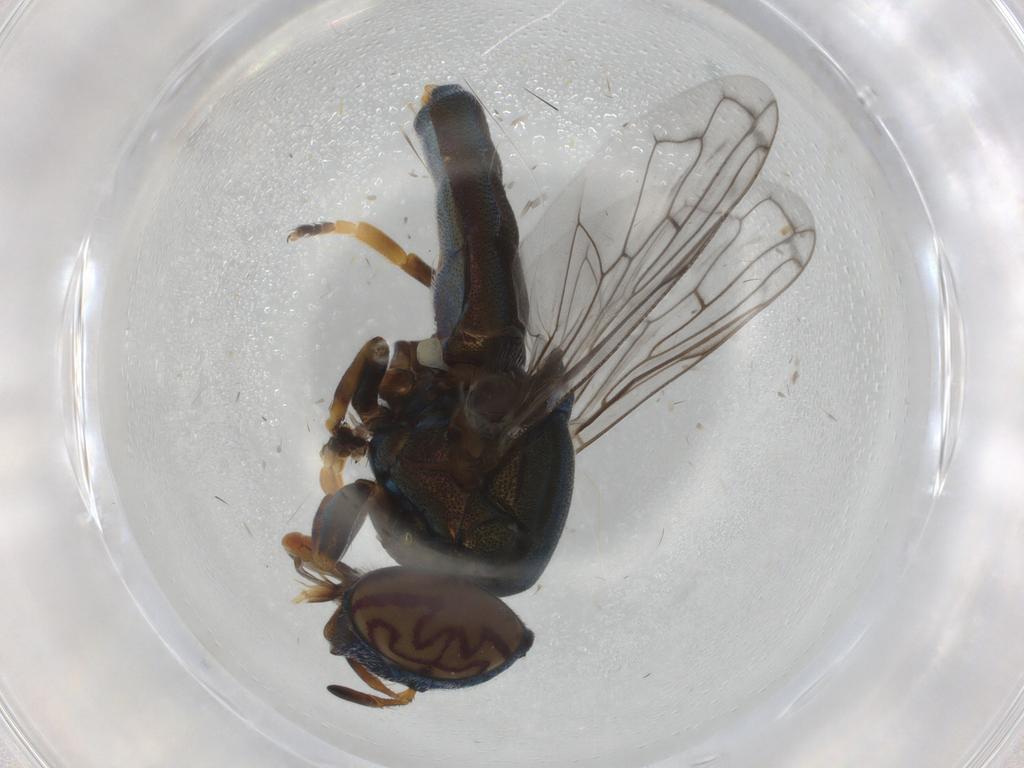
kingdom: Animalia
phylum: Arthropoda
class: Insecta
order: Diptera
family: Syrphidae
